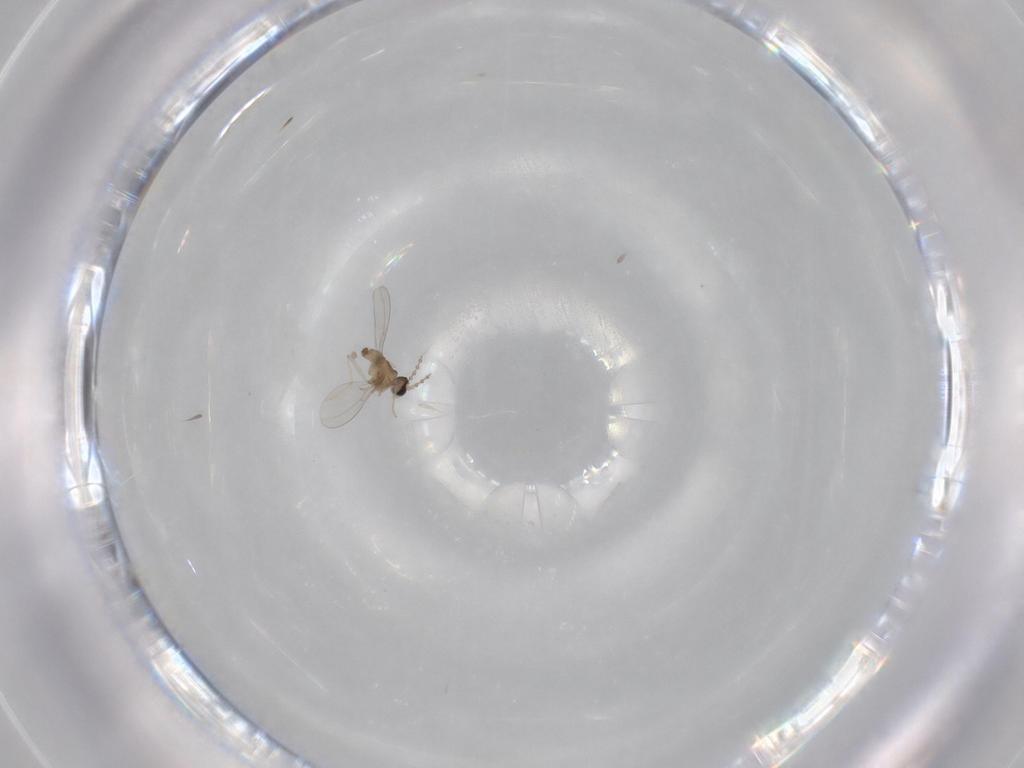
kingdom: Animalia
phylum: Arthropoda
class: Insecta
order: Diptera
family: Cecidomyiidae
